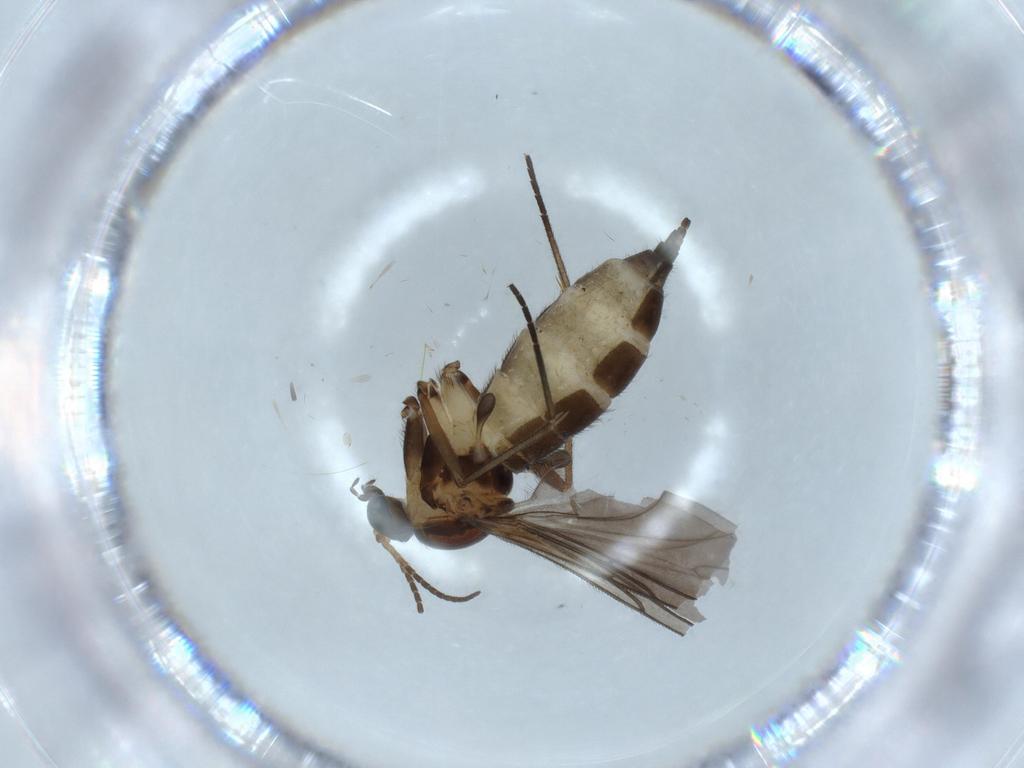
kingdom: Animalia
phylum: Arthropoda
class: Insecta
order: Diptera
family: Sciaridae
